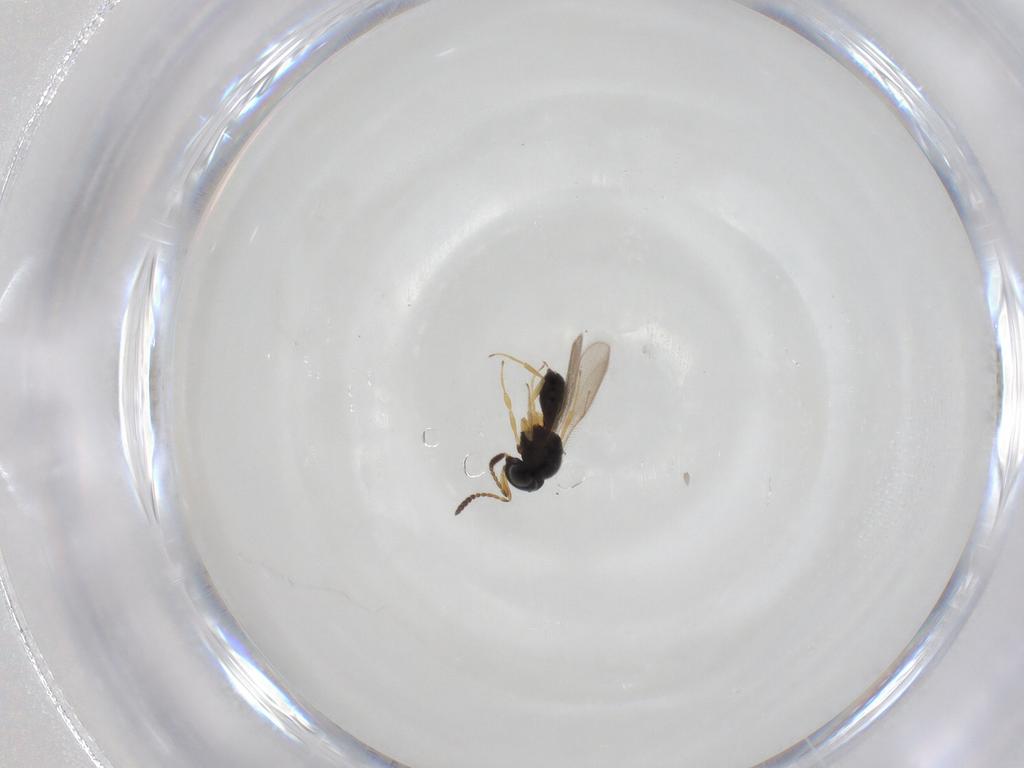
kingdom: Animalia
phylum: Arthropoda
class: Insecta
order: Hymenoptera
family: Scelionidae
